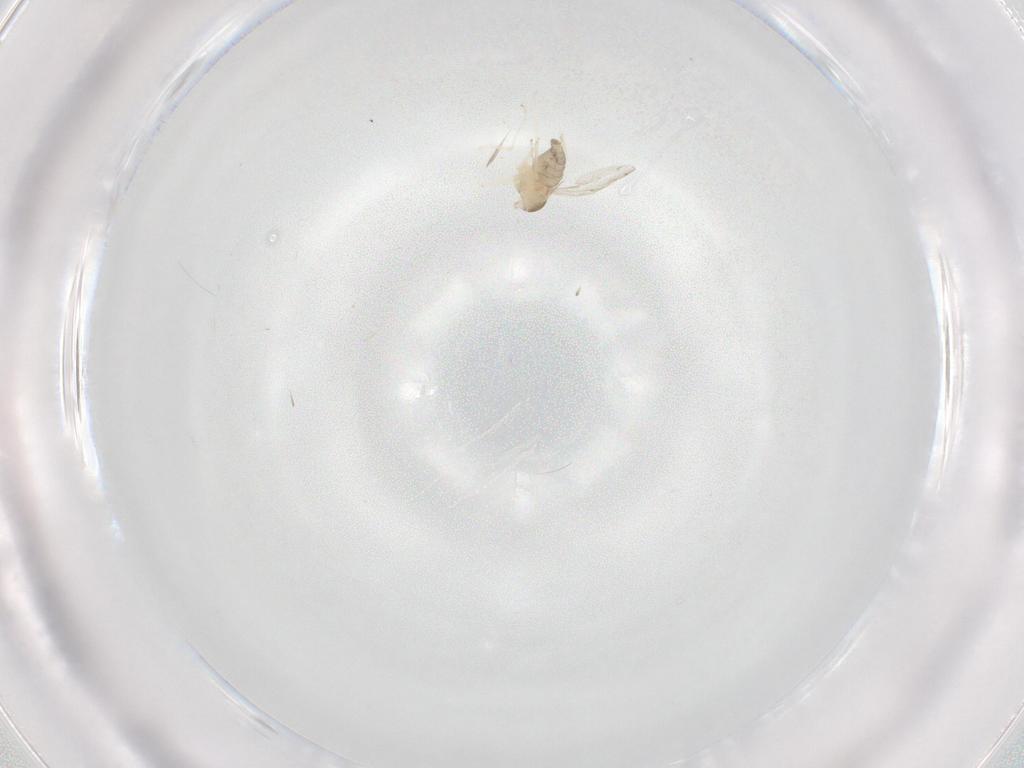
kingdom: Animalia
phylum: Arthropoda
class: Insecta
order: Diptera
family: Cecidomyiidae
